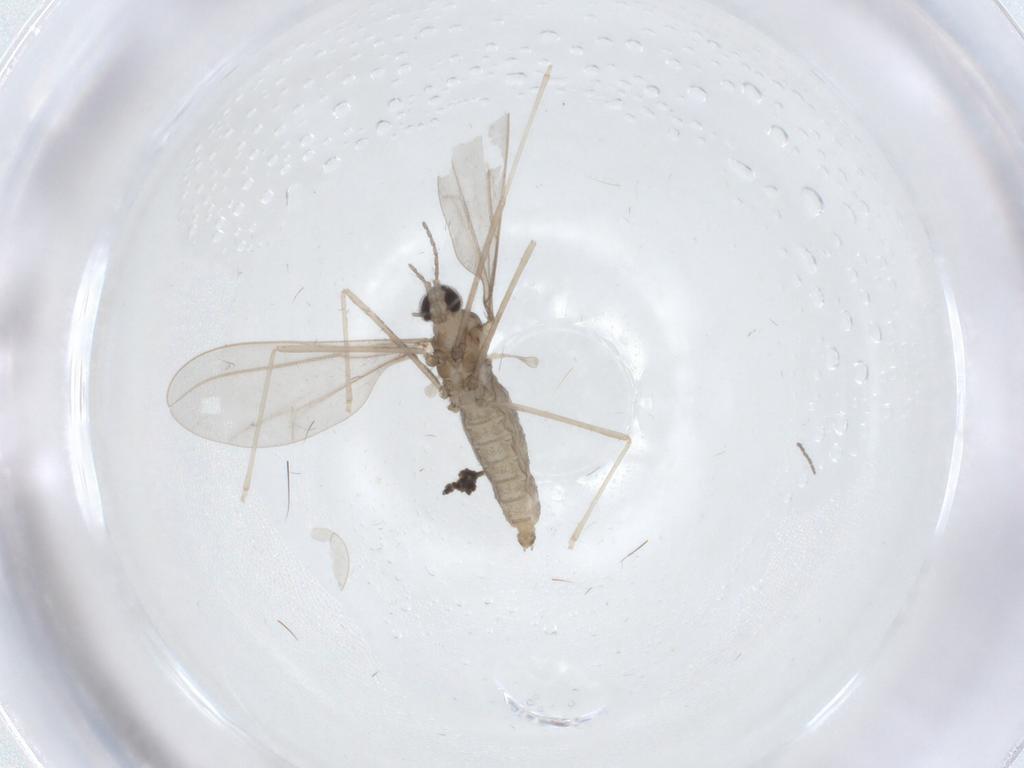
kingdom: Animalia
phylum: Arthropoda
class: Insecta
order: Diptera
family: Cecidomyiidae
